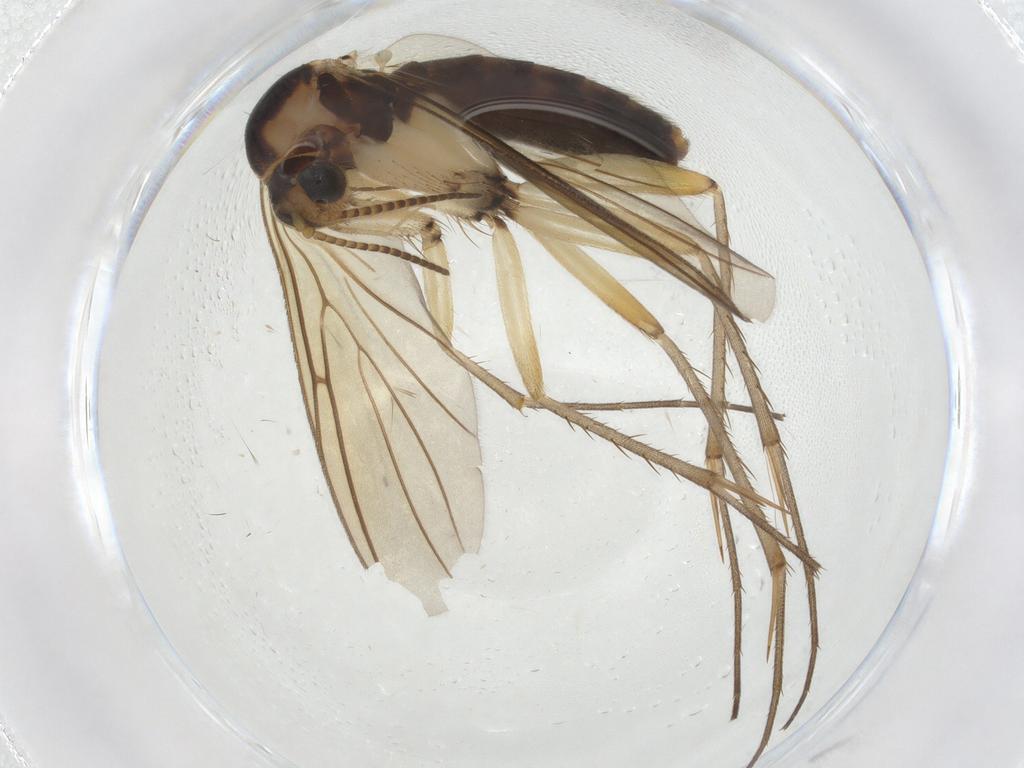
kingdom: Animalia
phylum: Arthropoda
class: Insecta
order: Diptera
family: Mycetophilidae
